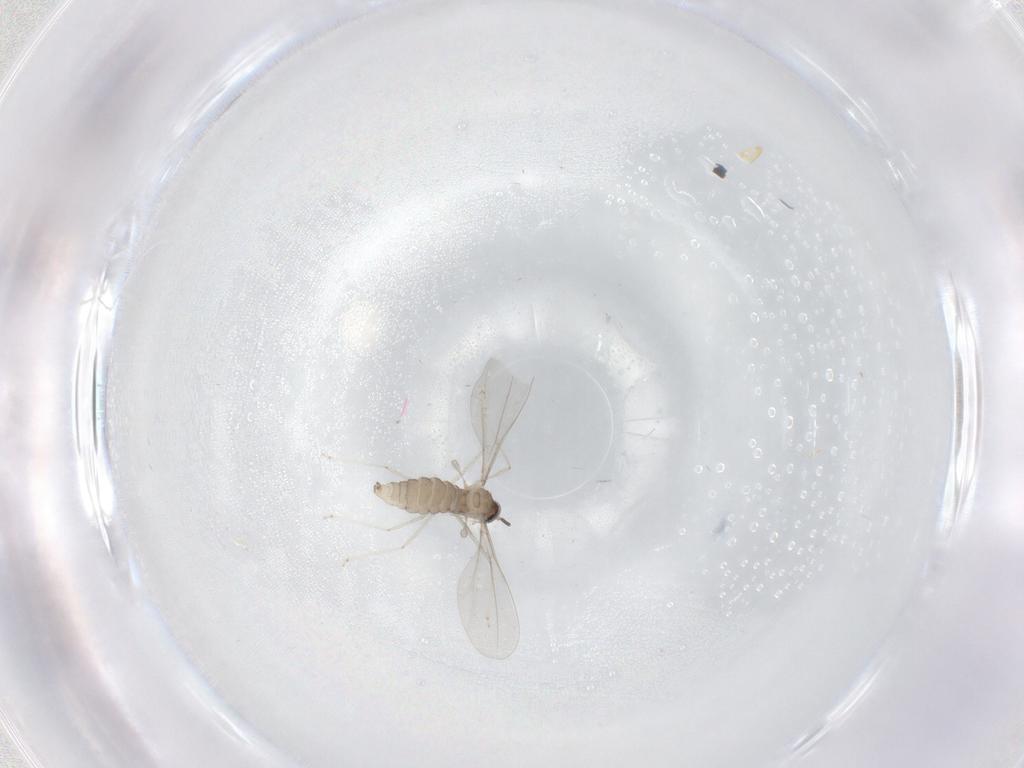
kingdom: Animalia
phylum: Arthropoda
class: Insecta
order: Diptera
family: Cecidomyiidae
